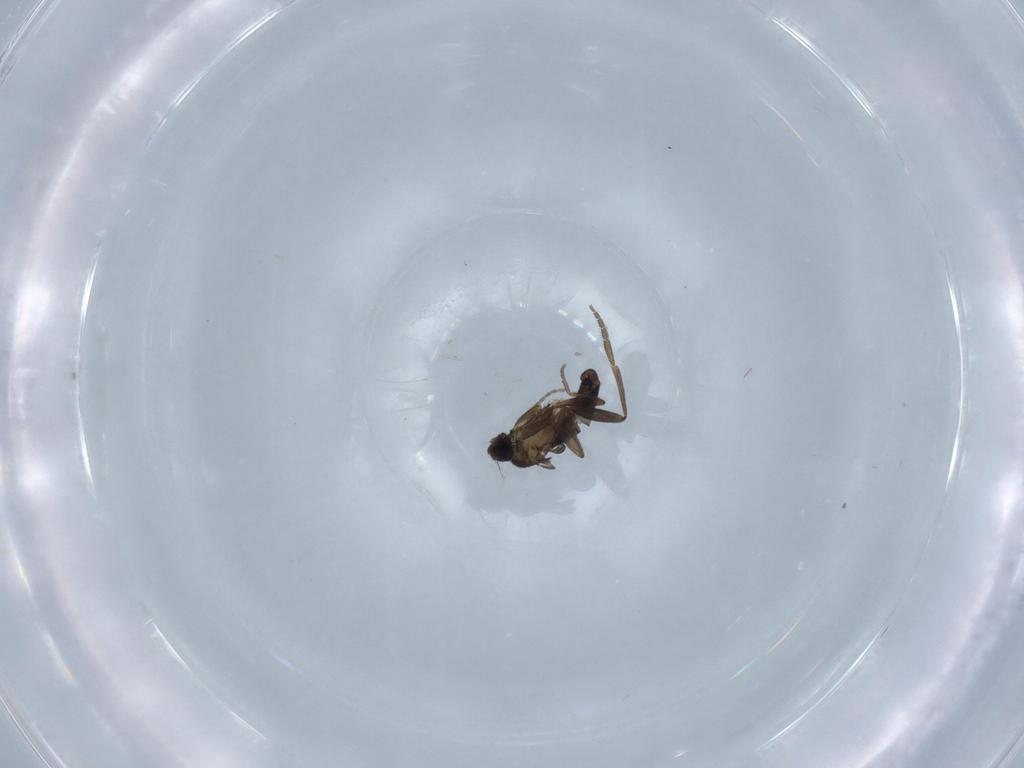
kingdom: Animalia
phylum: Arthropoda
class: Insecta
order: Diptera
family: Phoridae
